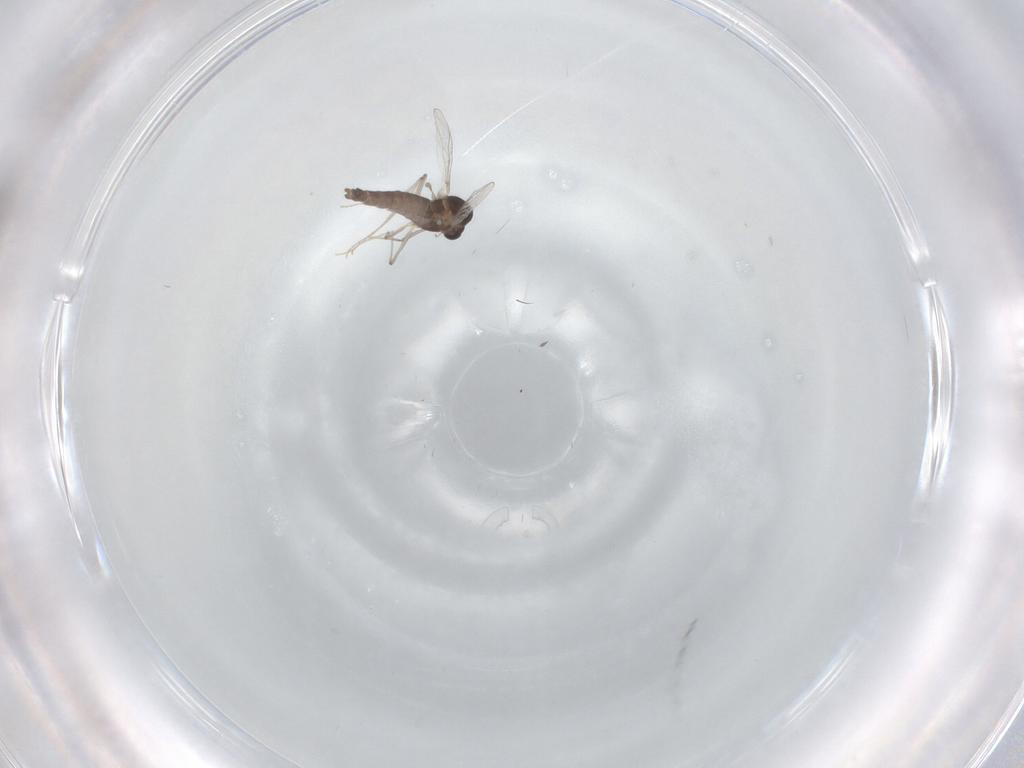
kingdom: Animalia
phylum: Arthropoda
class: Insecta
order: Diptera
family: Chironomidae
